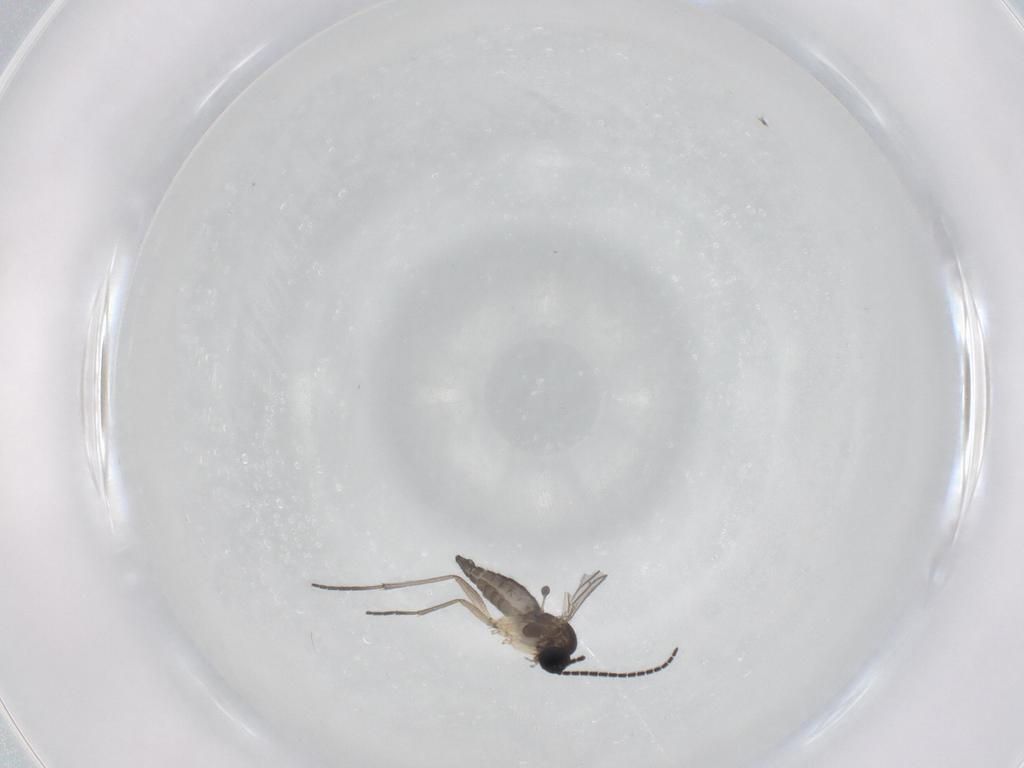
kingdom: Animalia
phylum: Arthropoda
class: Insecta
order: Diptera
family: Sciaridae
